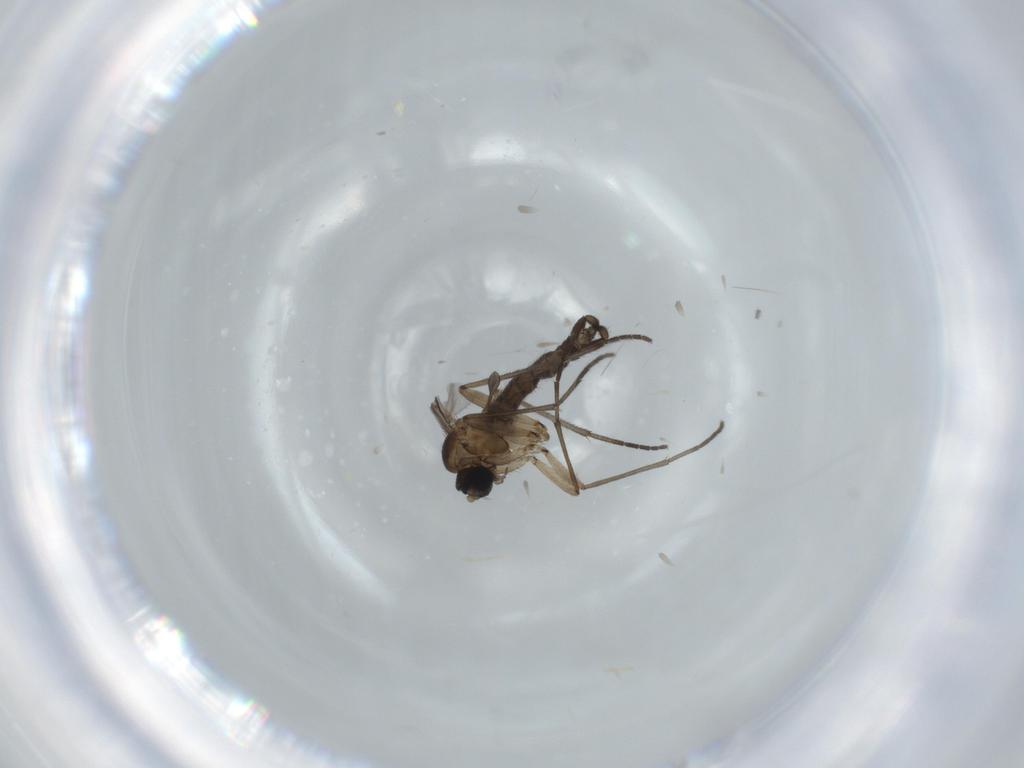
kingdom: Animalia
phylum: Arthropoda
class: Insecta
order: Diptera
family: Sciaridae
